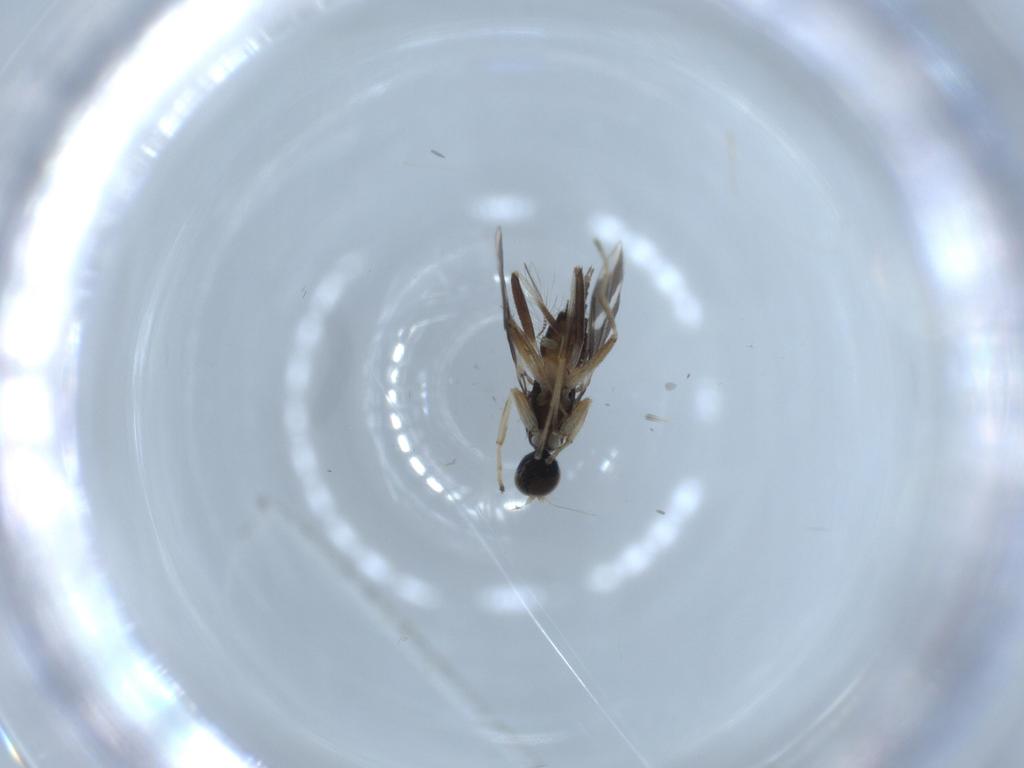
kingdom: Animalia
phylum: Arthropoda
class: Insecta
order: Diptera
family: Hybotidae
